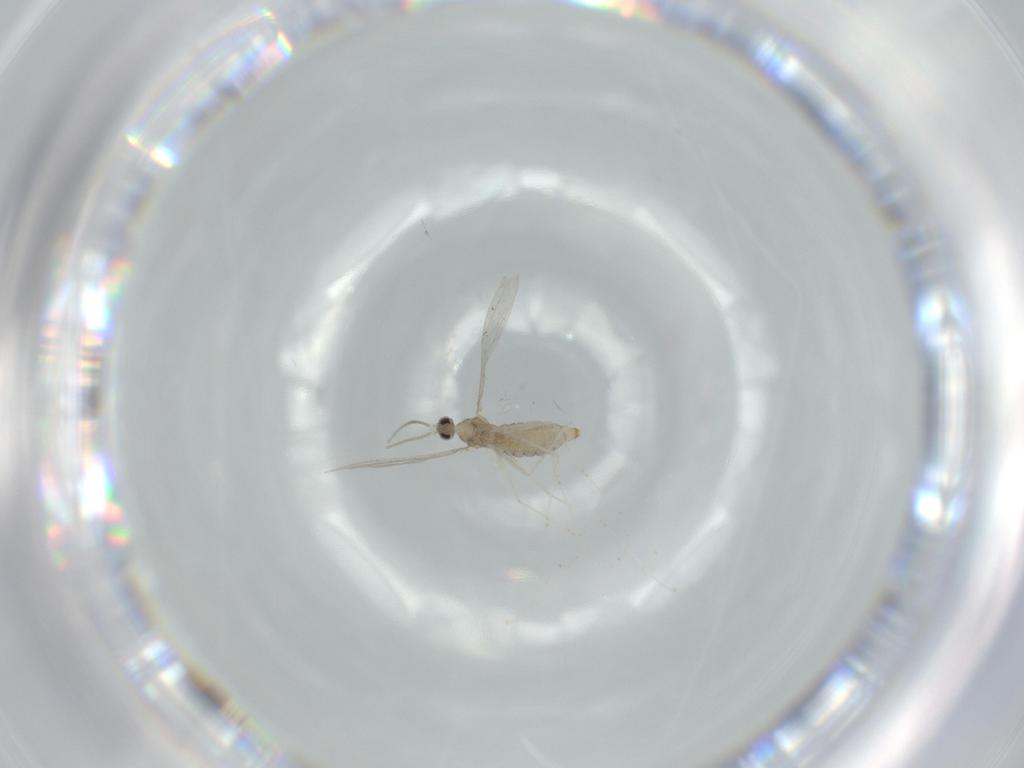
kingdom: Animalia
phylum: Arthropoda
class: Insecta
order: Diptera
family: Cecidomyiidae
